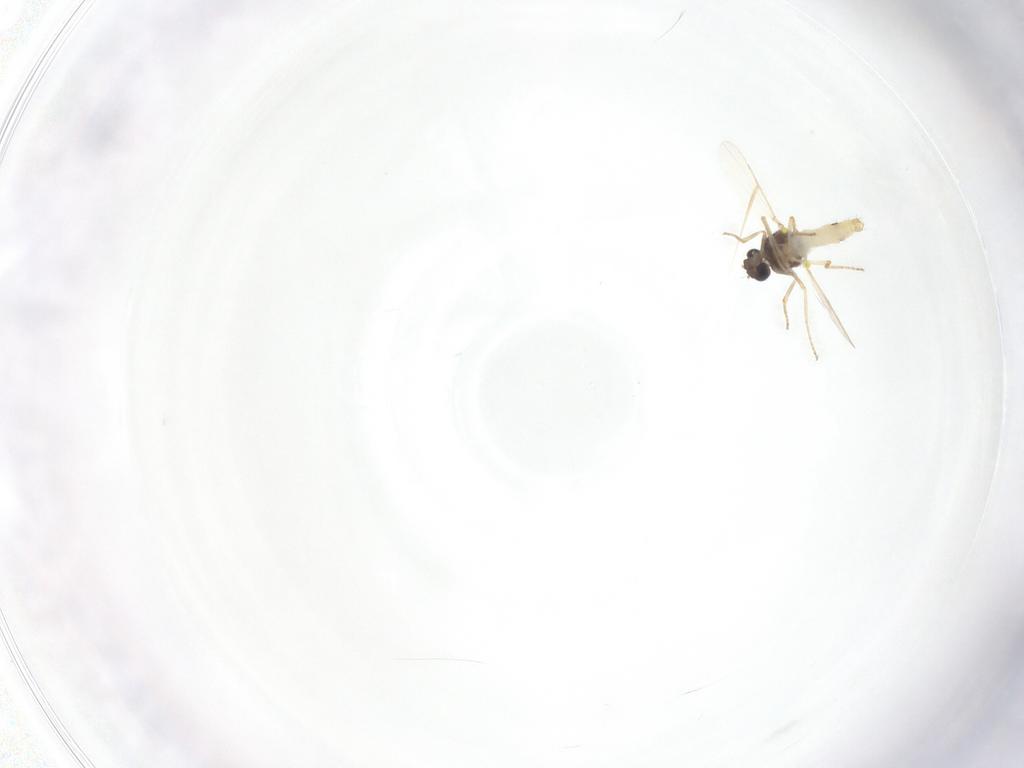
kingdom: Animalia
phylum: Arthropoda
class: Insecta
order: Diptera
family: Ceratopogonidae
